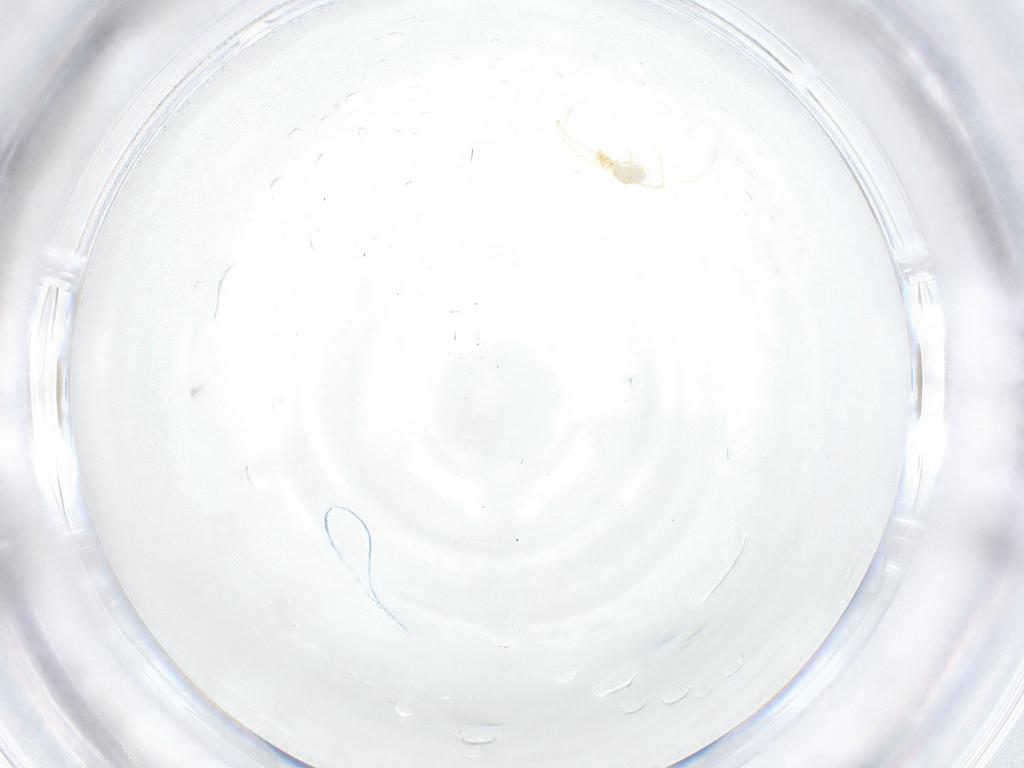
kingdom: Animalia
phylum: Arthropoda
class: Arachnida
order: Trombidiformes
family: Erythraeidae
